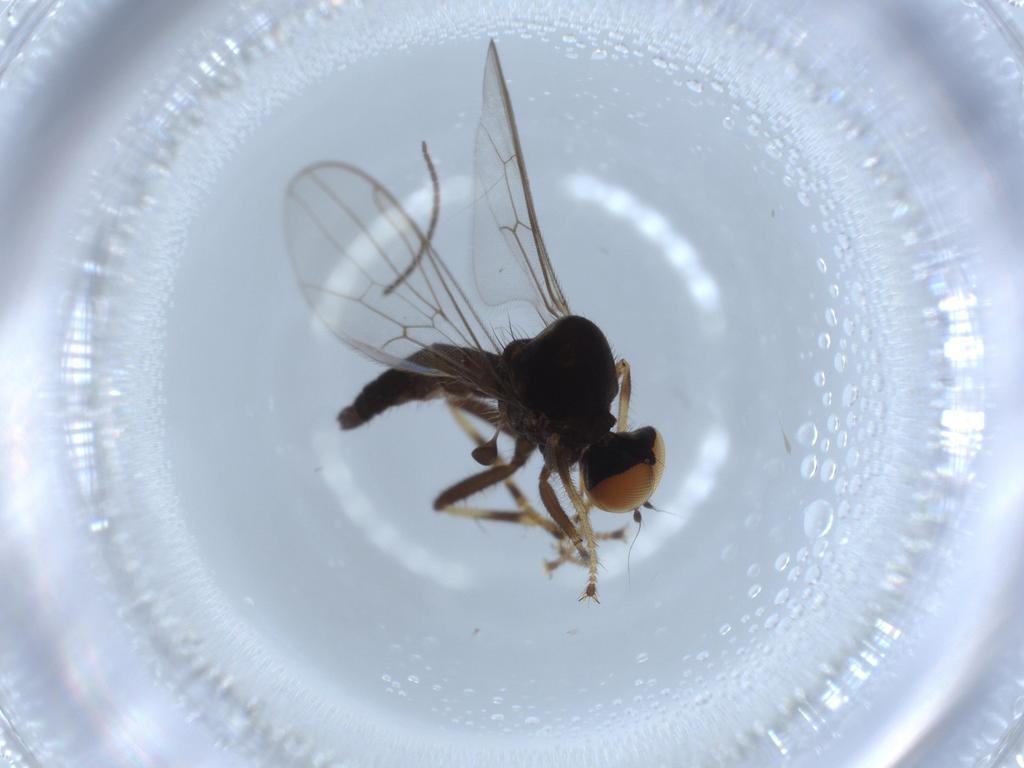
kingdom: Animalia
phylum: Arthropoda
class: Insecta
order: Diptera
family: Hybotidae
